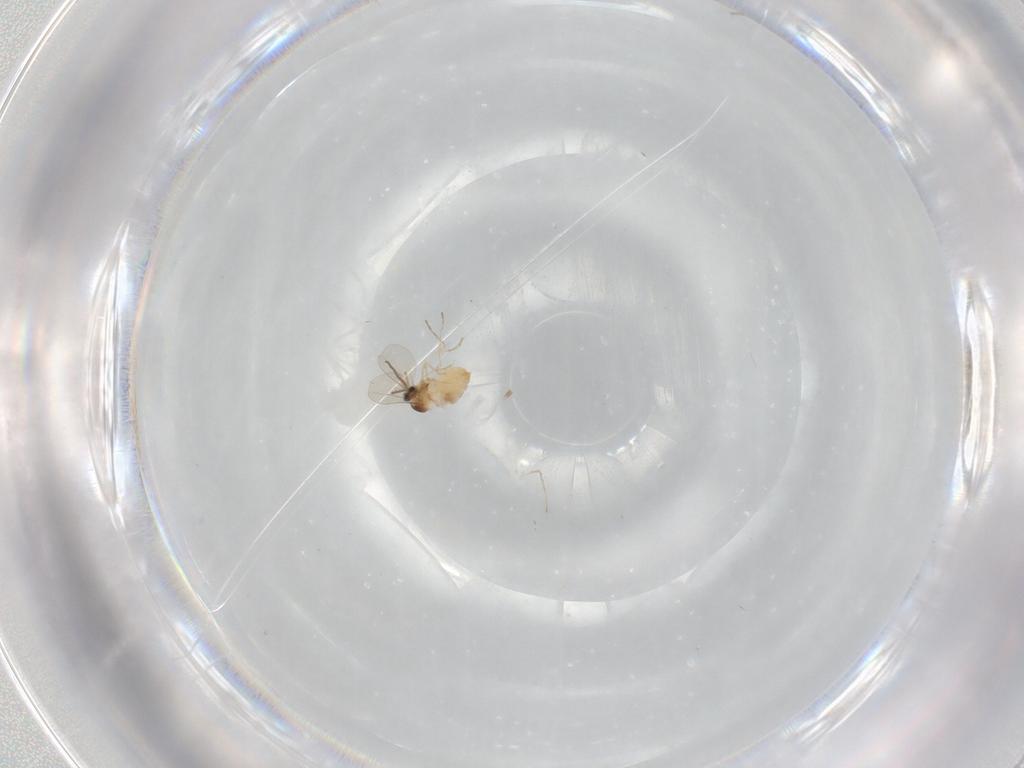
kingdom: Animalia
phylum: Arthropoda
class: Insecta
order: Diptera
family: Cecidomyiidae
